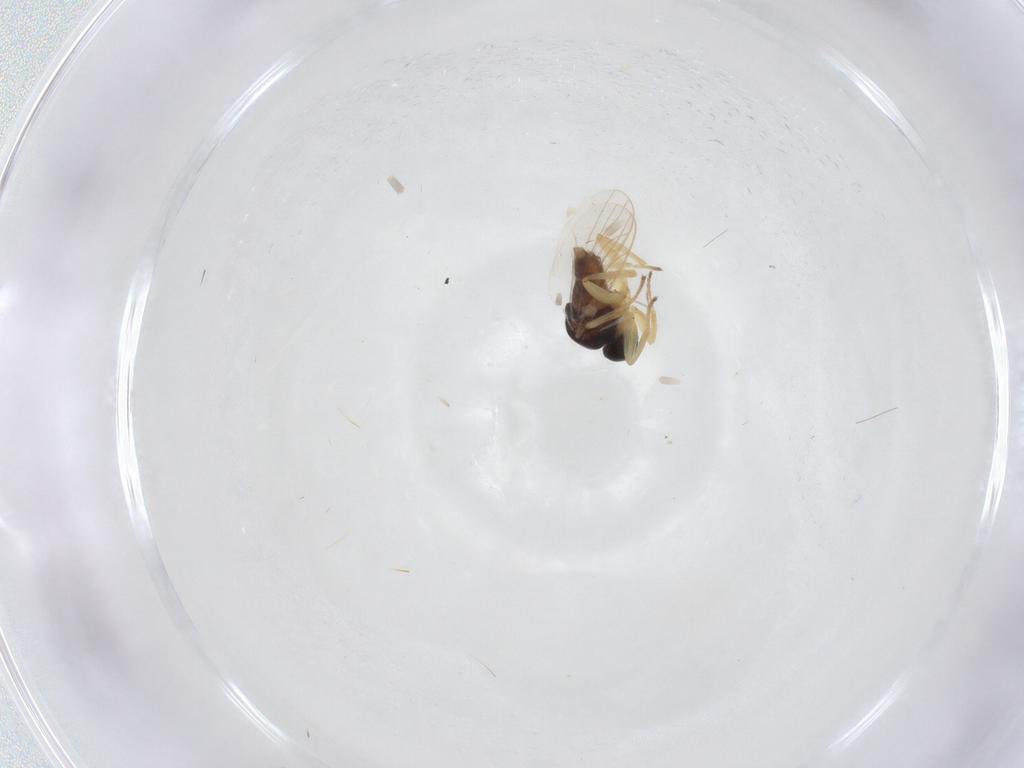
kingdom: Animalia
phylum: Arthropoda
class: Insecta
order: Diptera
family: Hybotidae
